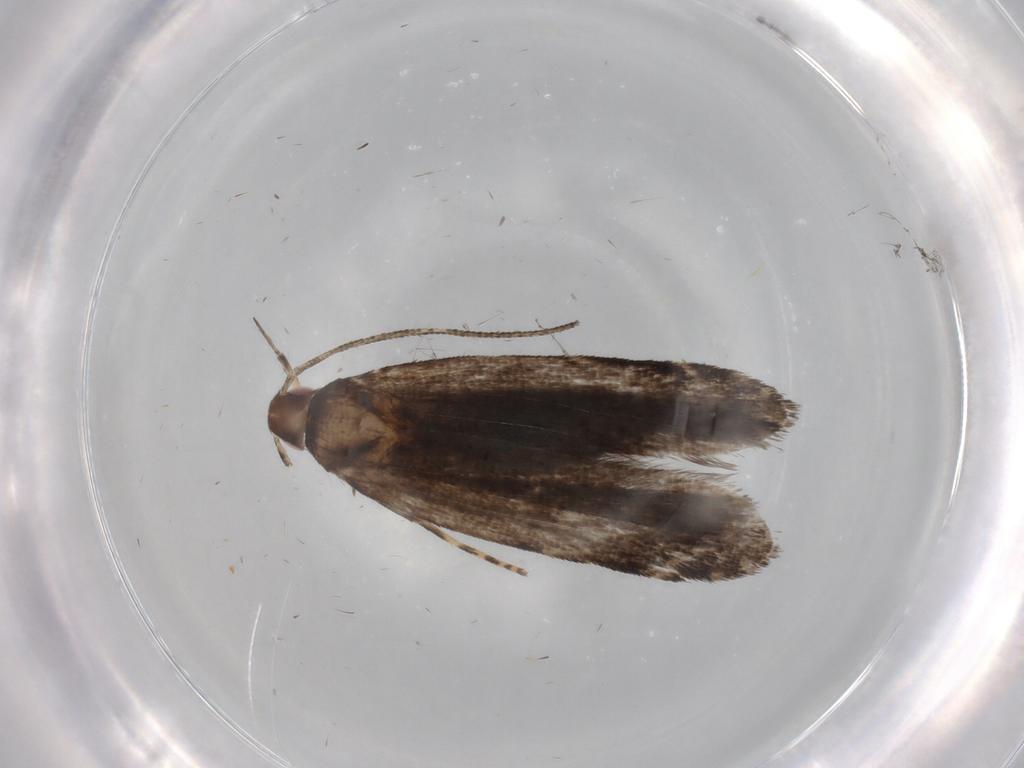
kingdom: Animalia
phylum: Arthropoda
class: Insecta
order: Lepidoptera
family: Gelechiidae
